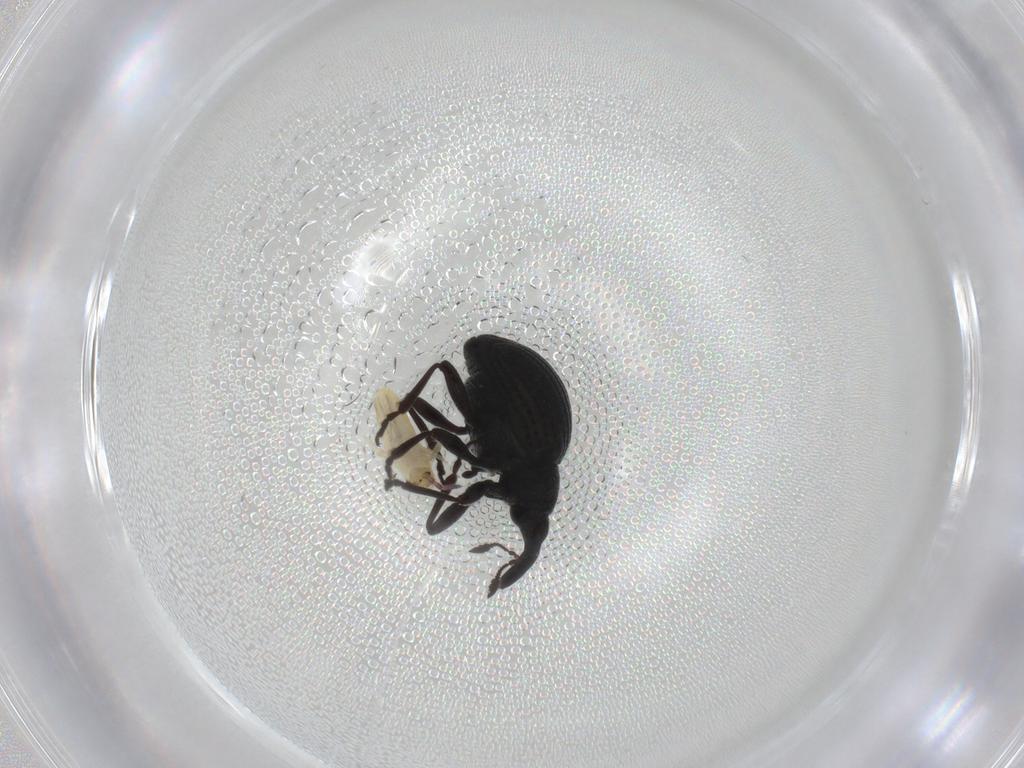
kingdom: Animalia
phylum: Arthropoda
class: Insecta
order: Coleoptera
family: Brentidae
